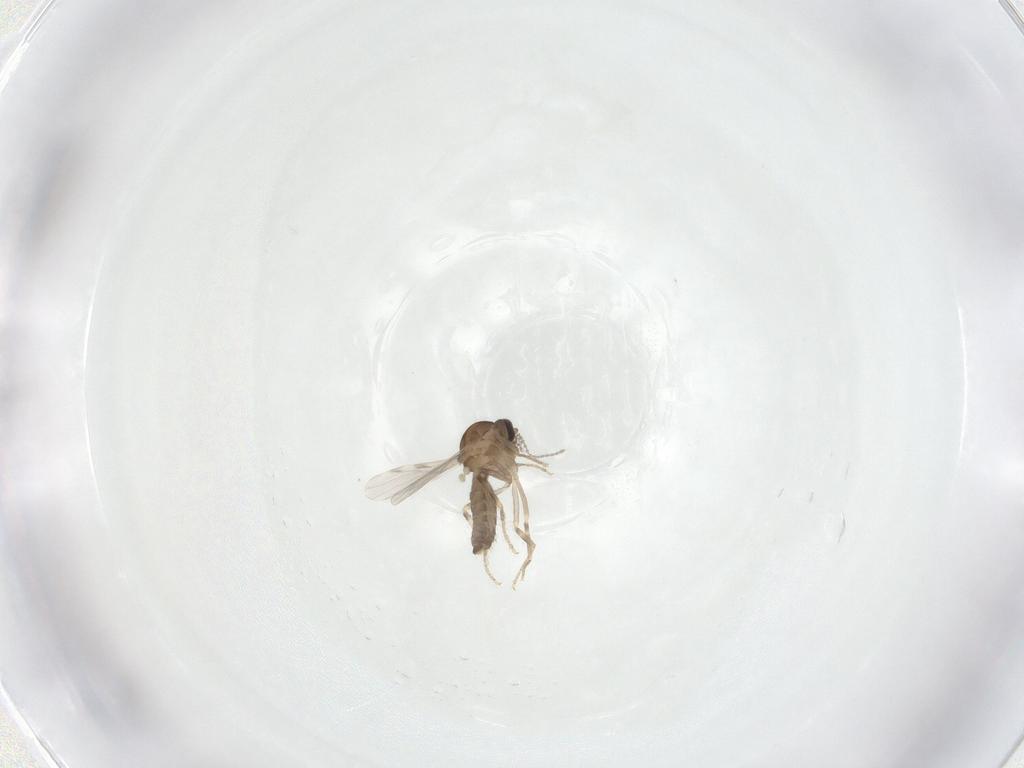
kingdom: Animalia
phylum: Arthropoda
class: Insecta
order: Diptera
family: Ceratopogonidae
